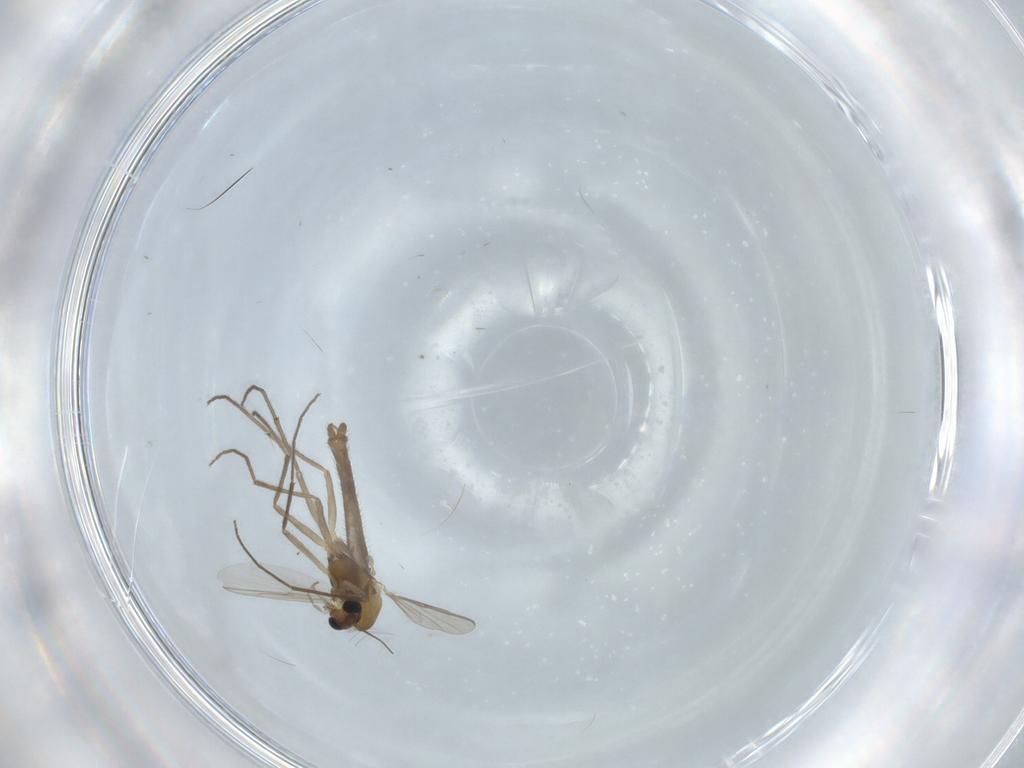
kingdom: Animalia
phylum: Arthropoda
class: Insecta
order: Diptera
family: Chironomidae
